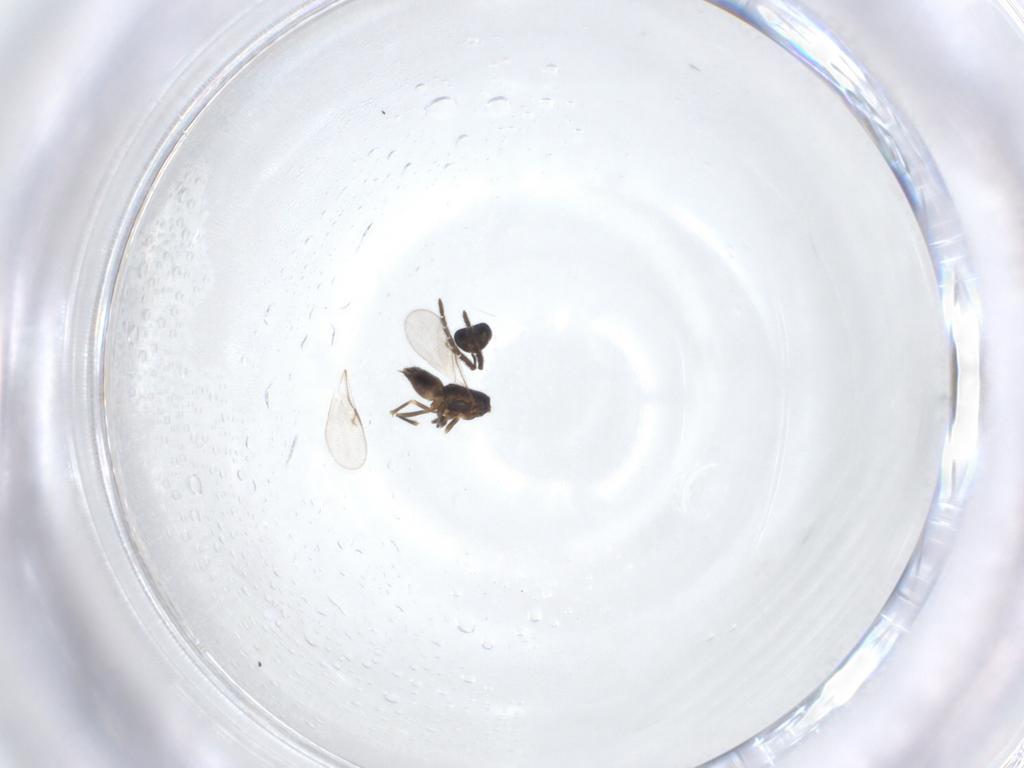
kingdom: Animalia
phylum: Arthropoda
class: Insecta
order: Hymenoptera
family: Encyrtidae
